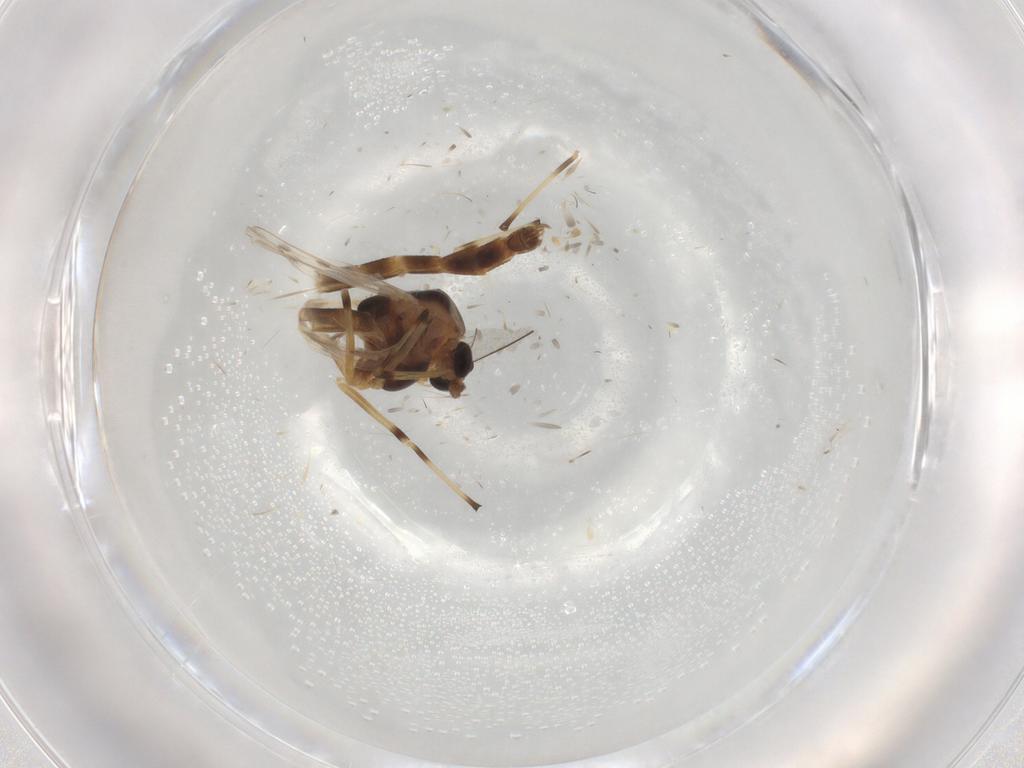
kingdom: Animalia
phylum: Arthropoda
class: Insecta
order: Diptera
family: Chironomidae
